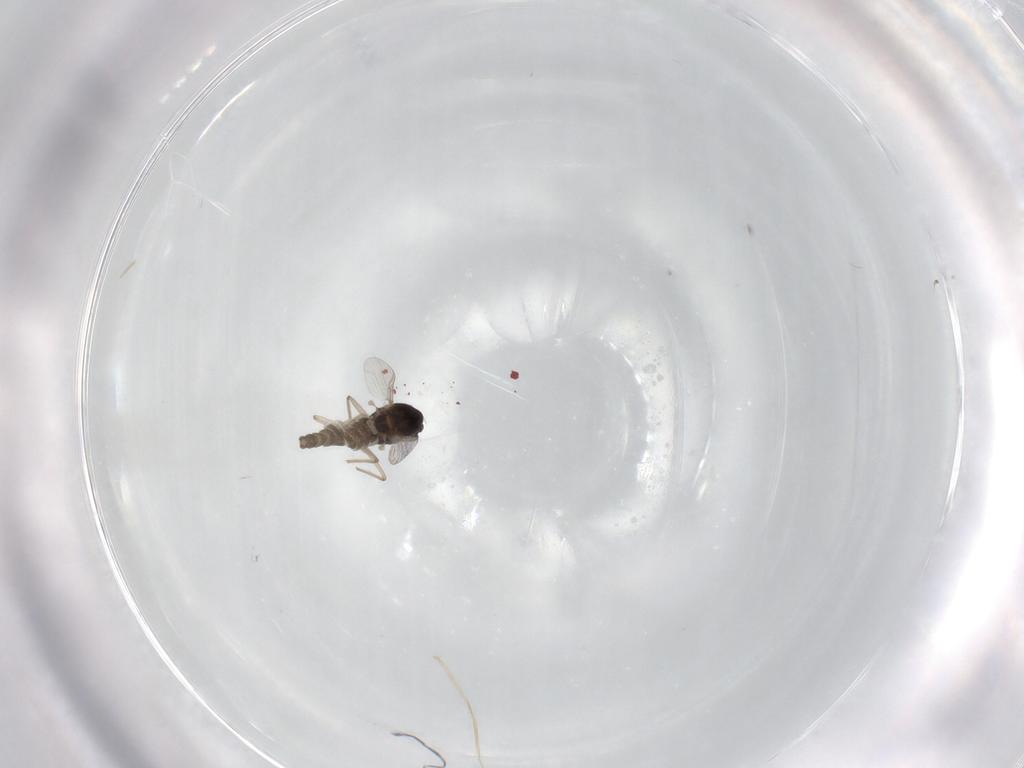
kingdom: Animalia
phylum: Arthropoda
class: Insecta
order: Diptera
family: Chironomidae
